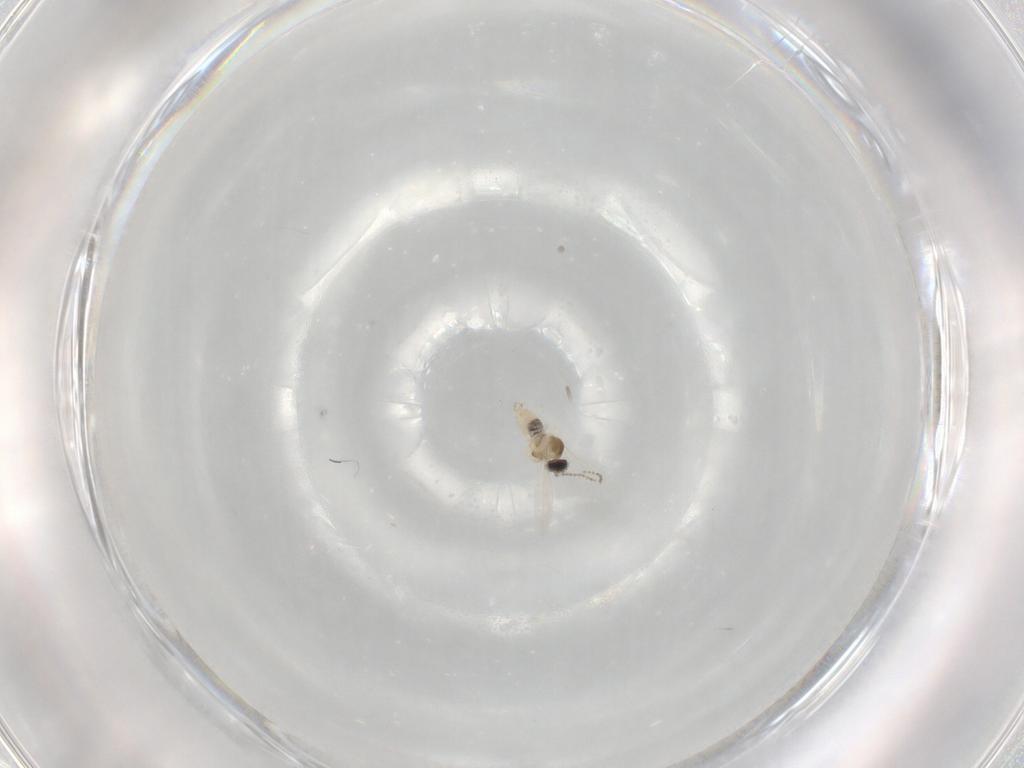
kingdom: Animalia
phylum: Arthropoda
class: Insecta
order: Diptera
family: Cecidomyiidae
